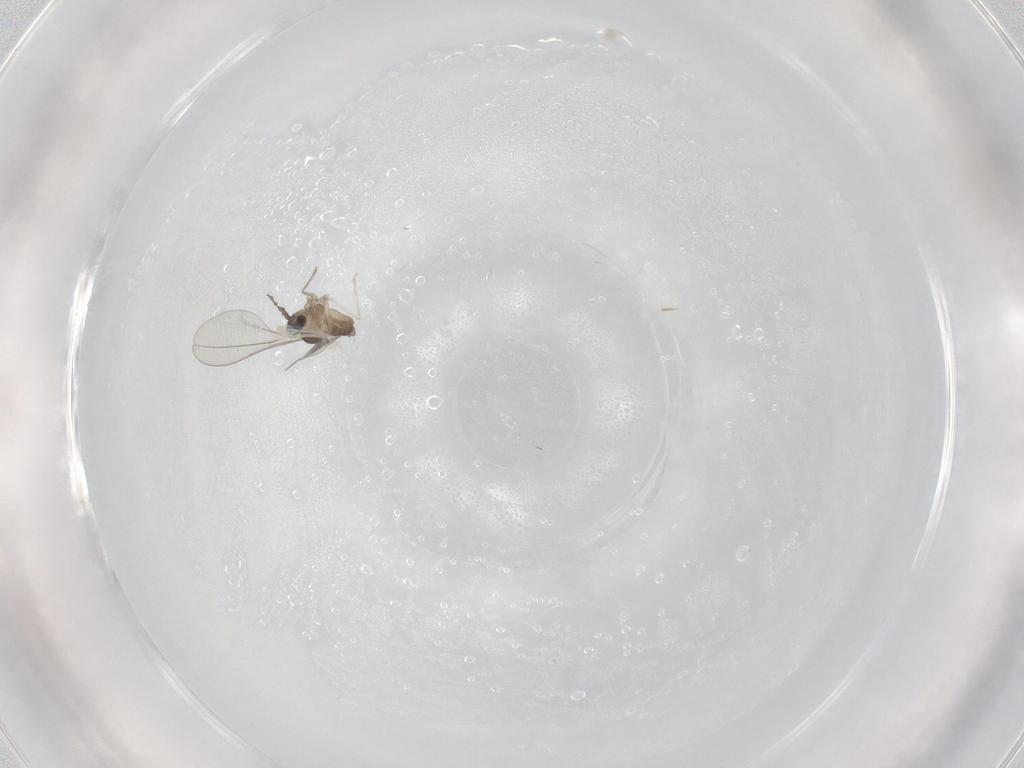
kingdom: Animalia
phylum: Arthropoda
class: Insecta
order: Diptera
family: Cecidomyiidae
